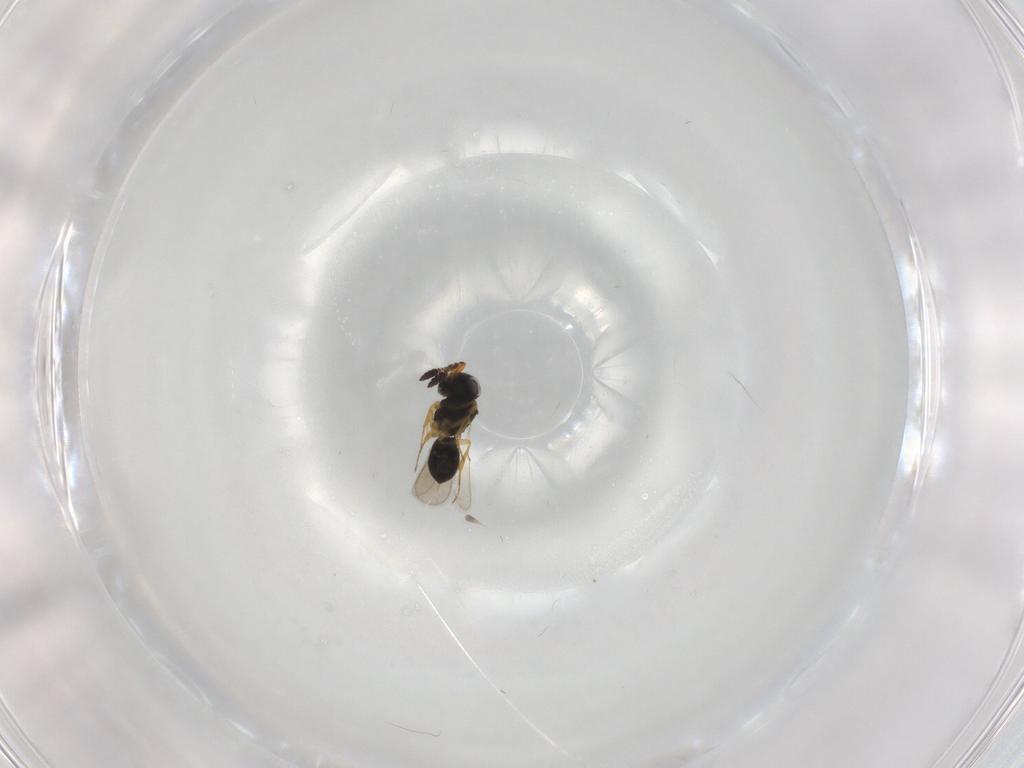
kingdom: Animalia
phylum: Arthropoda
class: Insecta
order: Hymenoptera
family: Scelionidae
